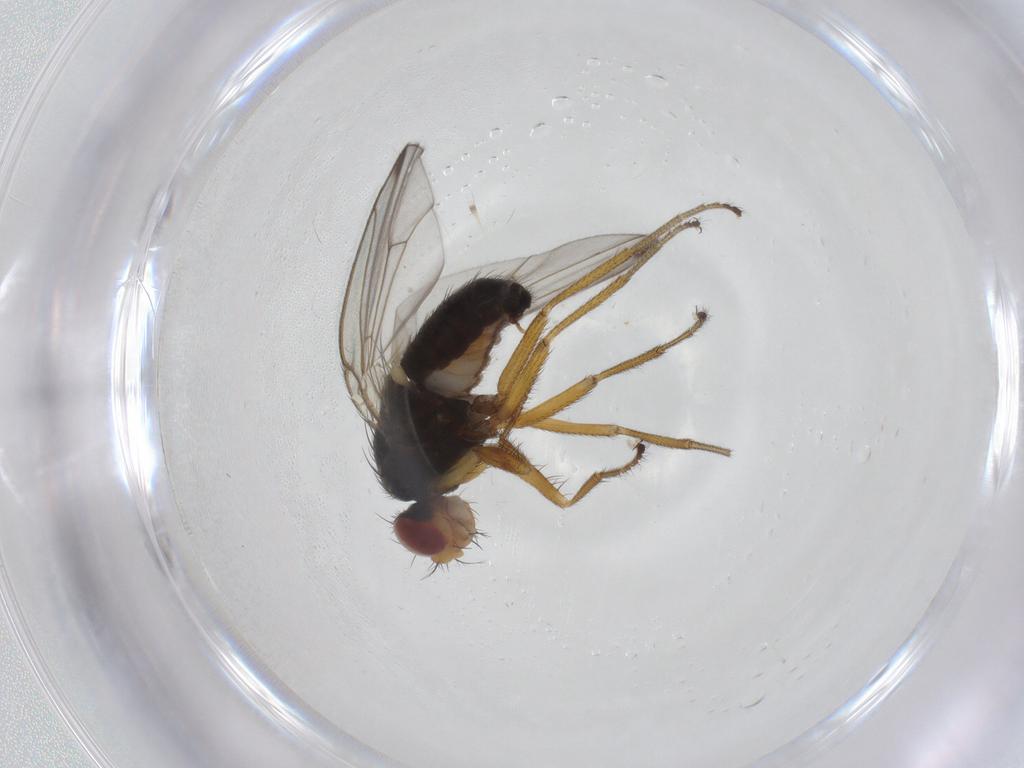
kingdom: Animalia
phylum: Arthropoda
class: Insecta
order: Diptera
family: Drosophilidae
